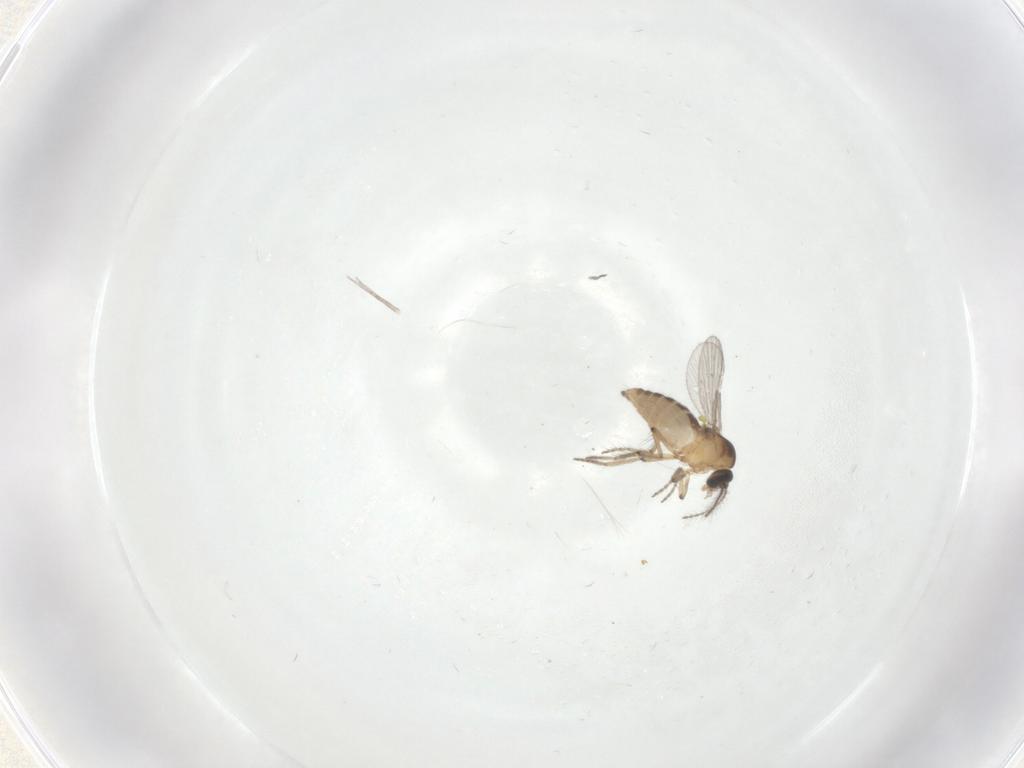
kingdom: Animalia
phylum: Arthropoda
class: Insecta
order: Diptera
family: Ceratopogonidae
